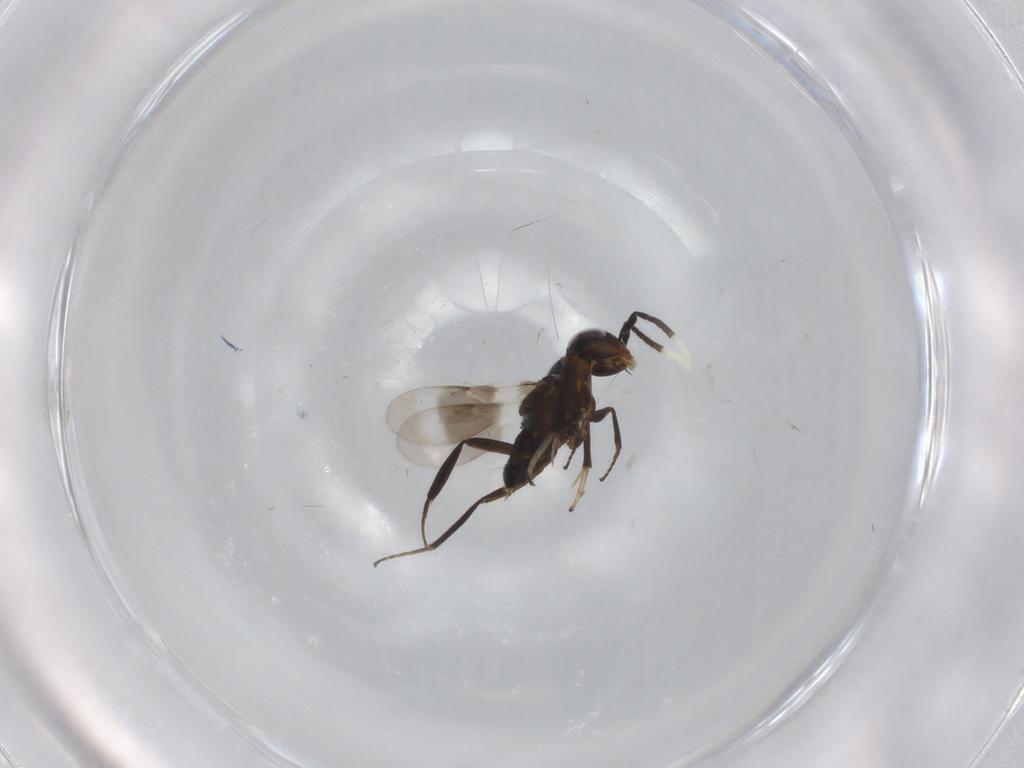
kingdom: Animalia
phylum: Arthropoda
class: Insecta
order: Hymenoptera
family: Encyrtidae
